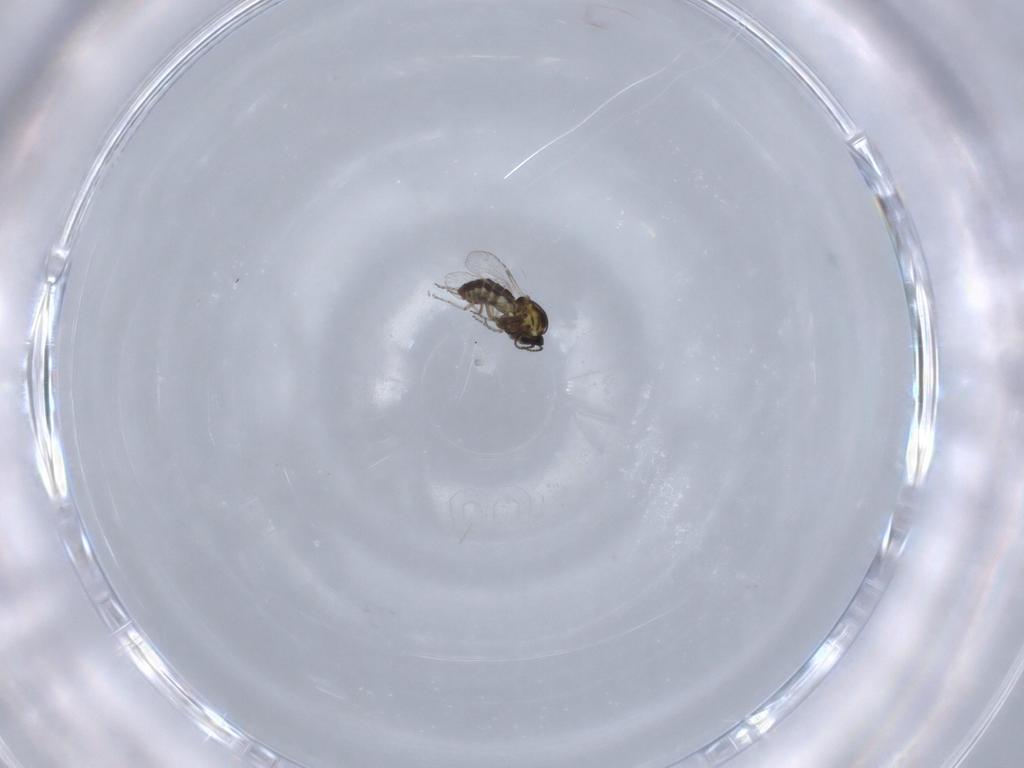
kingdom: Animalia
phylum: Arthropoda
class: Insecta
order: Diptera
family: Ceratopogonidae
